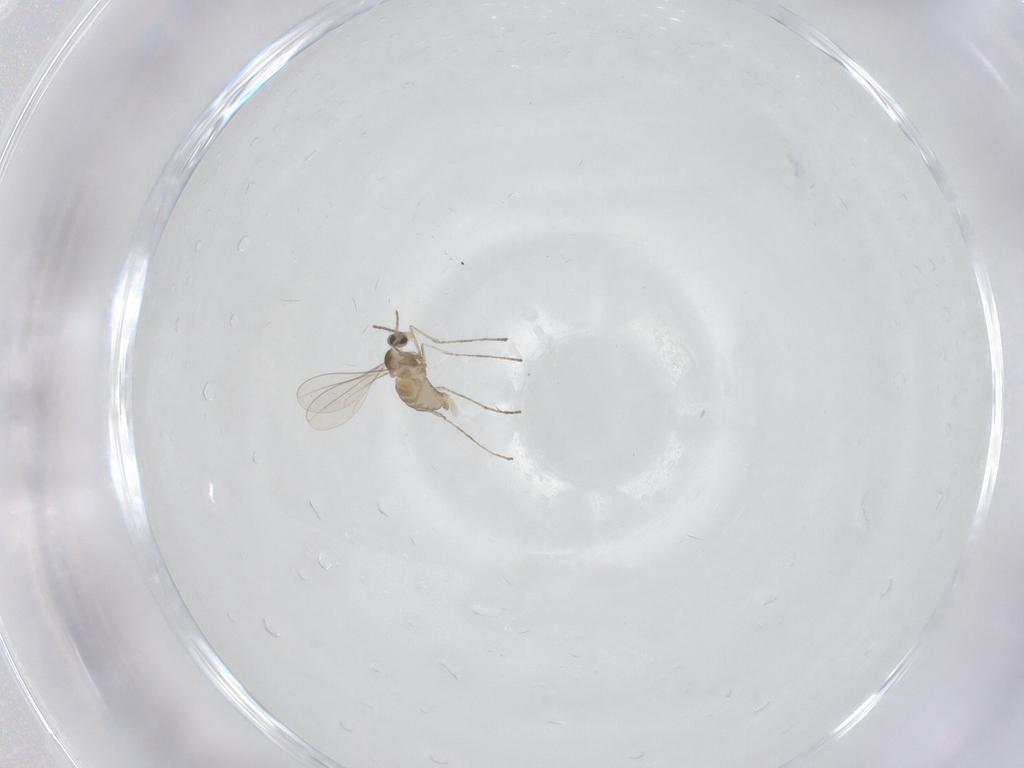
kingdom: Animalia
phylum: Arthropoda
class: Insecta
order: Diptera
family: Cecidomyiidae
